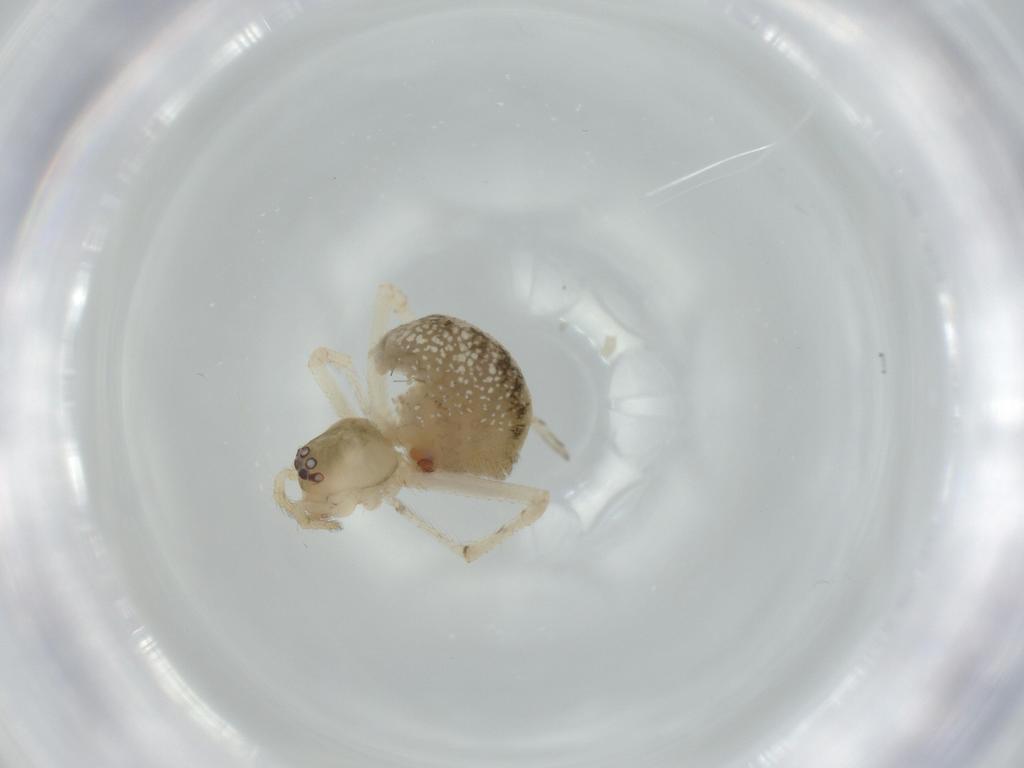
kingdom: Animalia
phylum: Arthropoda
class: Arachnida
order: Araneae
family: Theridiidae
